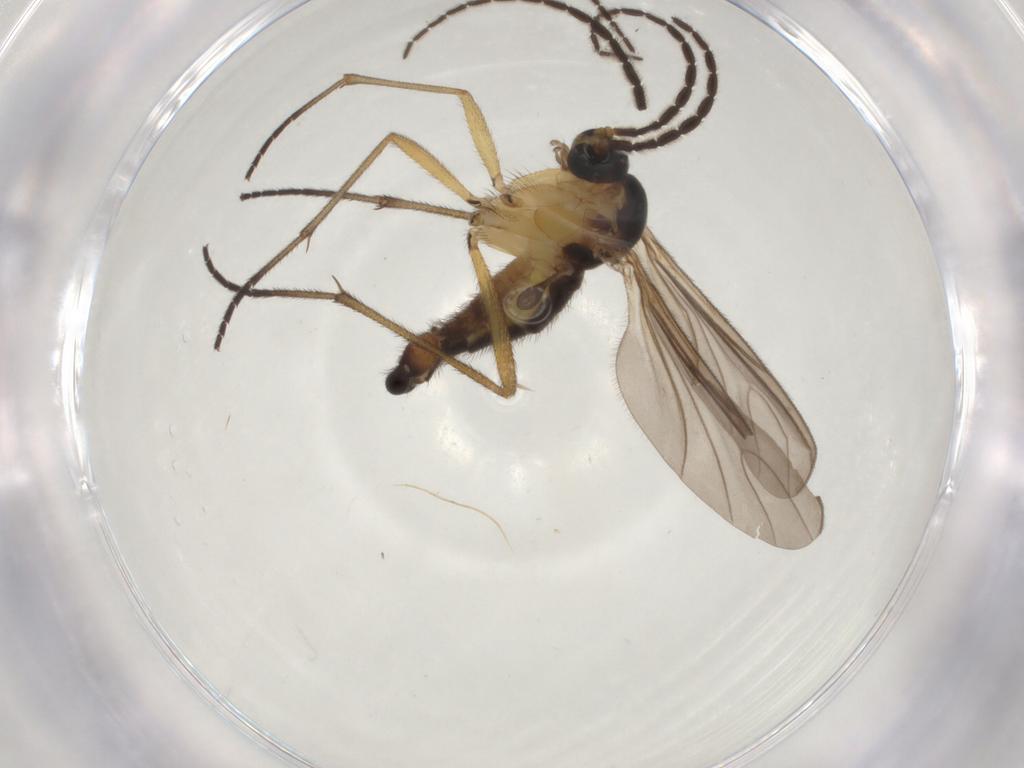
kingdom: Animalia
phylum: Arthropoda
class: Insecta
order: Diptera
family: Sciaridae
